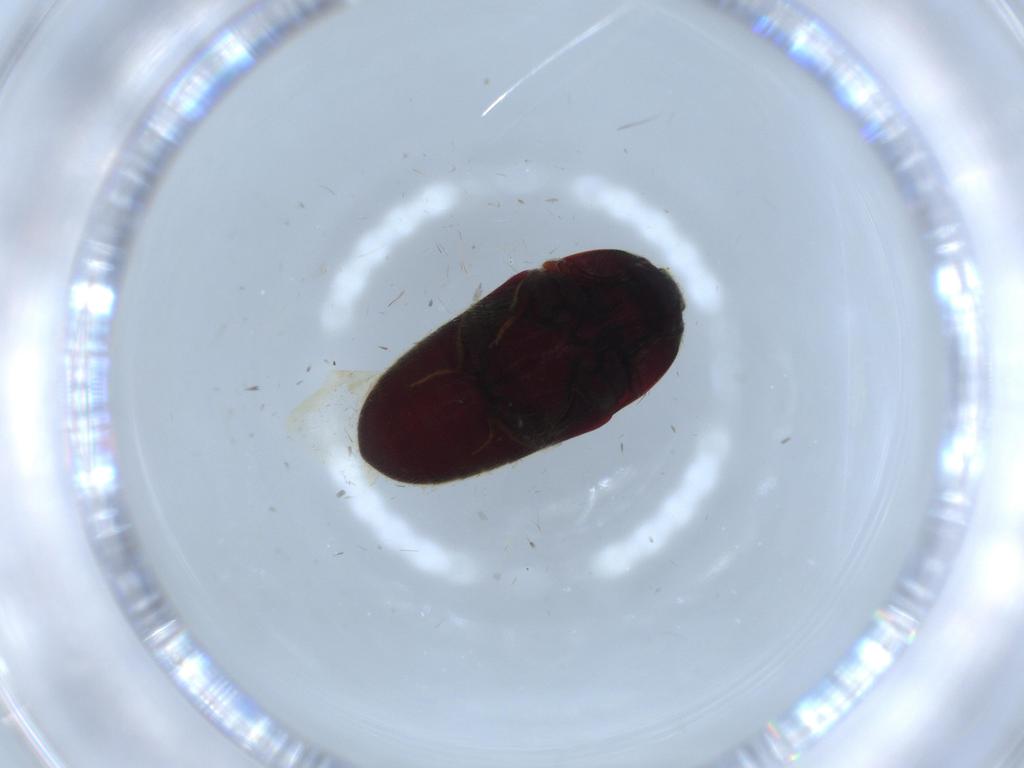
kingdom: Animalia
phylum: Arthropoda
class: Insecta
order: Coleoptera
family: Throscidae
